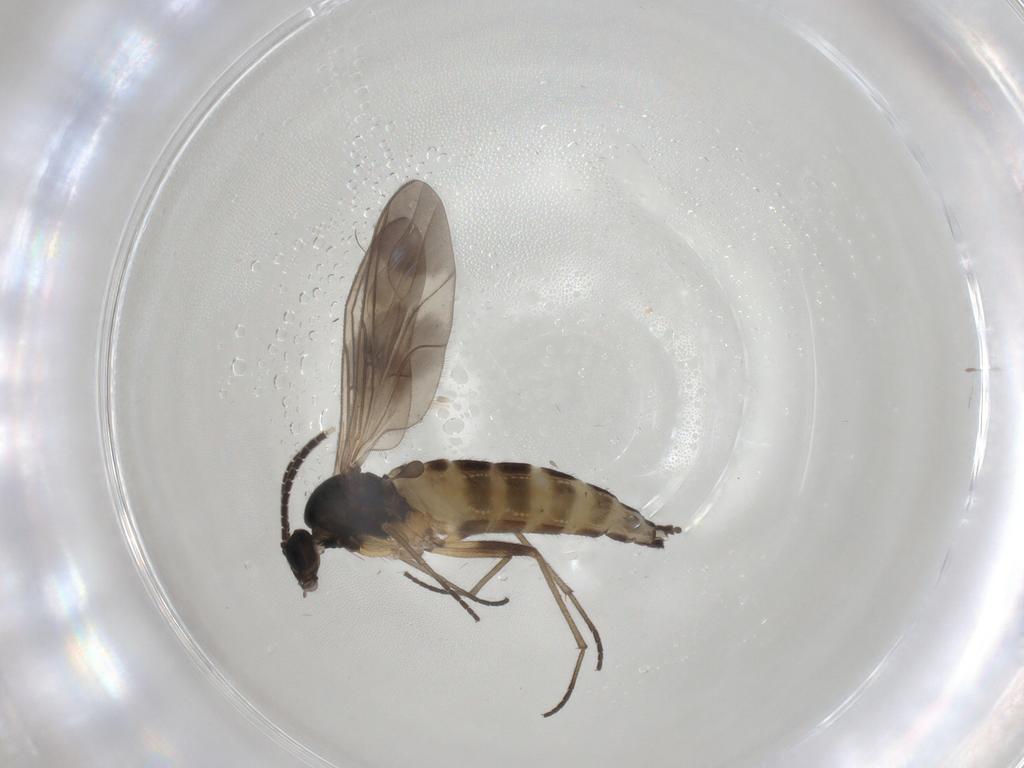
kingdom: Animalia
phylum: Arthropoda
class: Insecta
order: Diptera
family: Sciaridae
